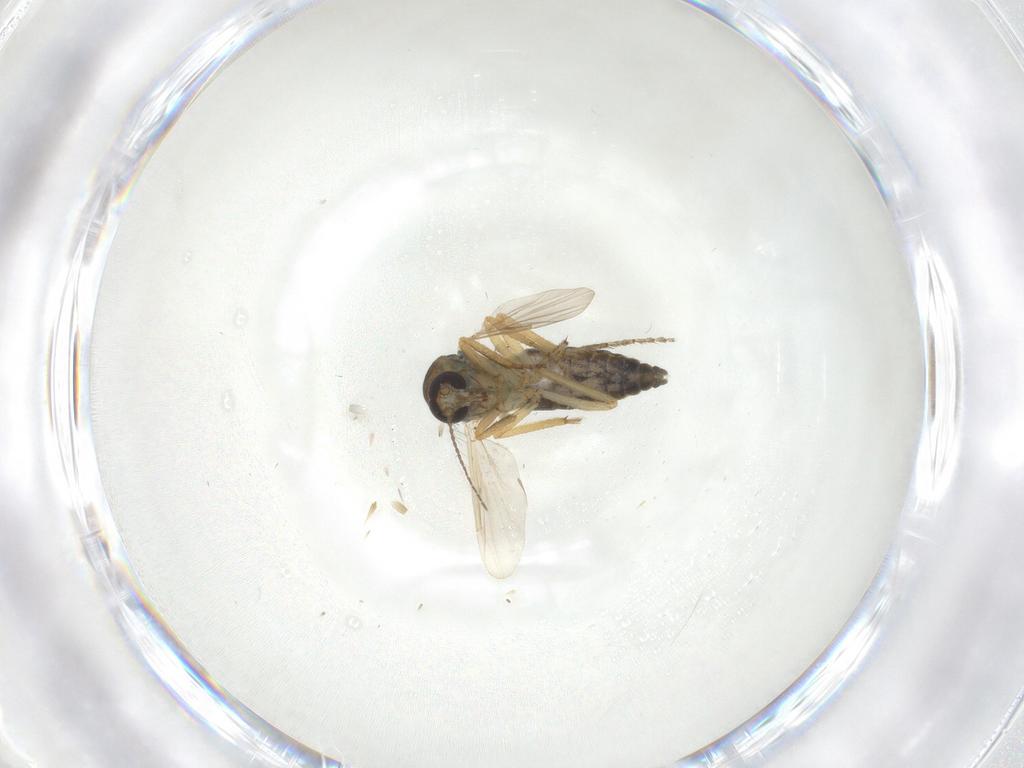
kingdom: Animalia
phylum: Arthropoda
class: Insecta
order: Diptera
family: Ceratopogonidae
